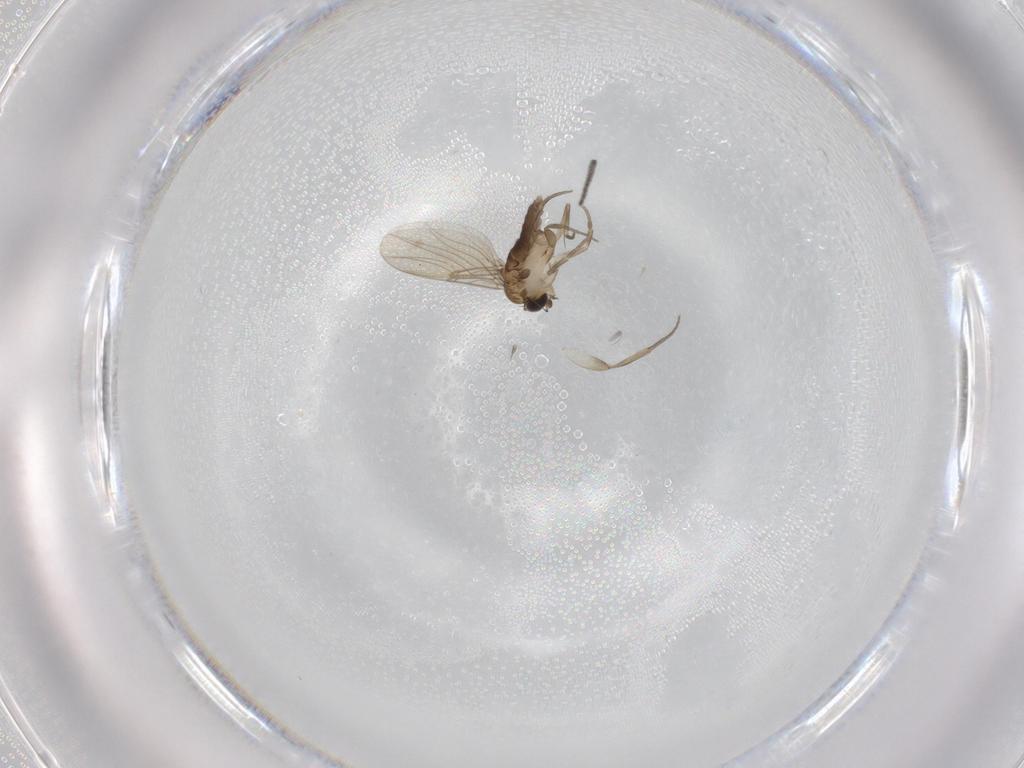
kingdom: Animalia
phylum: Arthropoda
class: Insecta
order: Diptera
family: Phoridae
